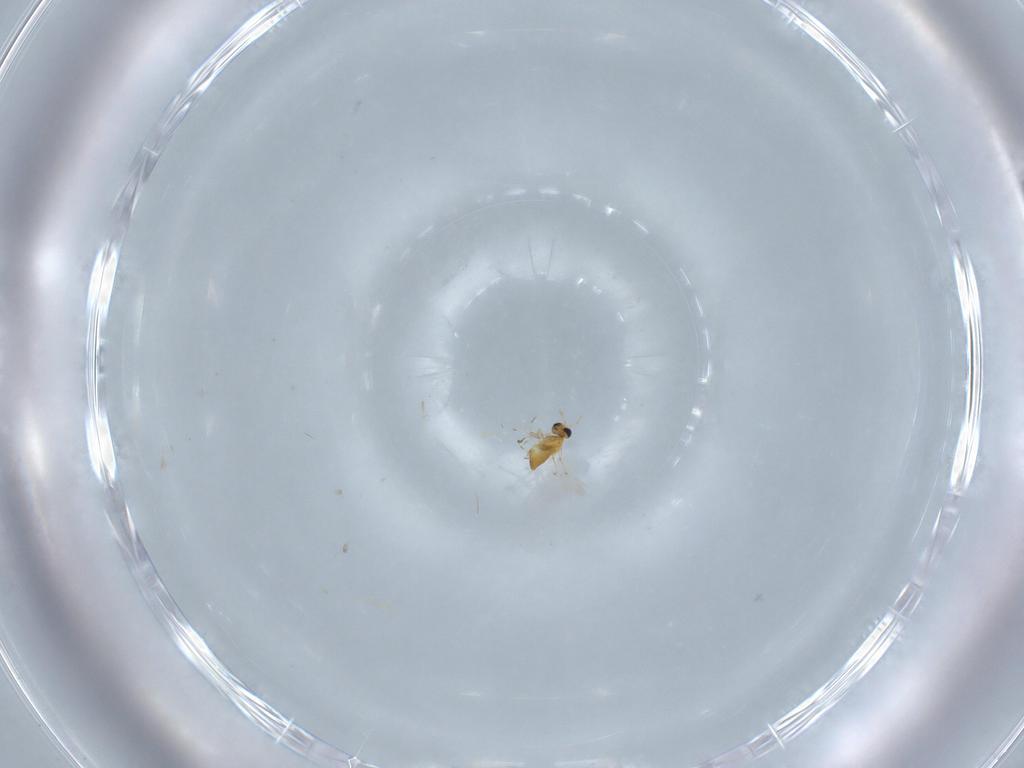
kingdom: Animalia
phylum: Arthropoda
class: Insecta
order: Hymenoptera
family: Trichogrammatidae
